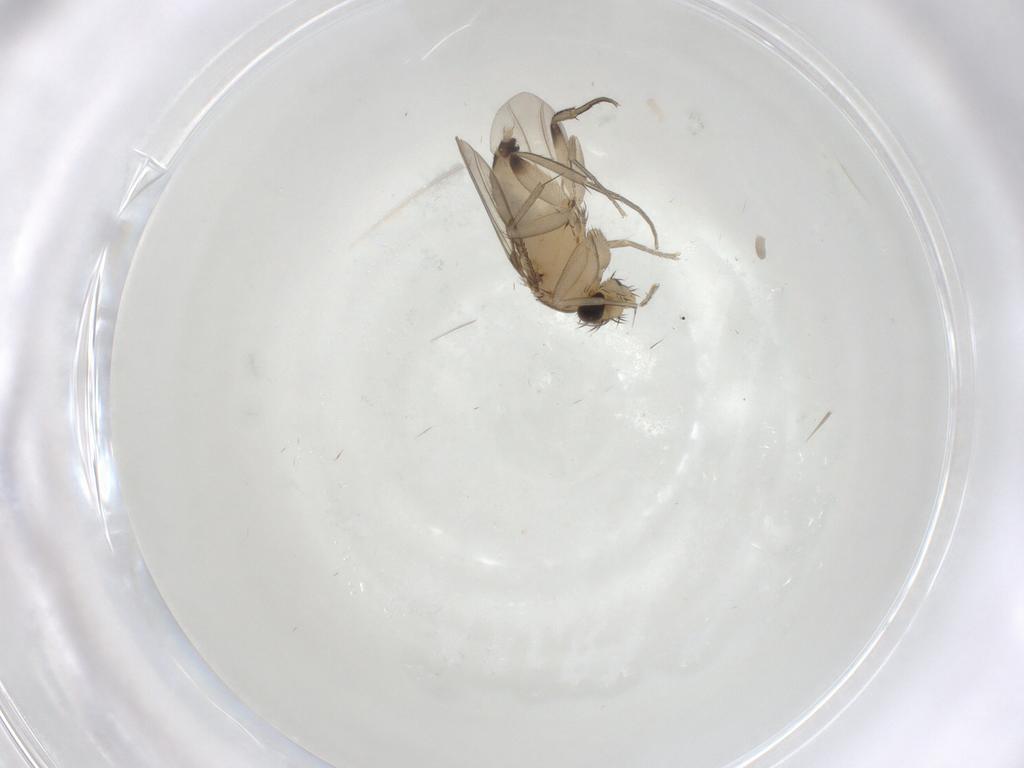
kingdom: Animalia
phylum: Arthropoda
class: Insecta
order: Diptera
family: Phoridae
